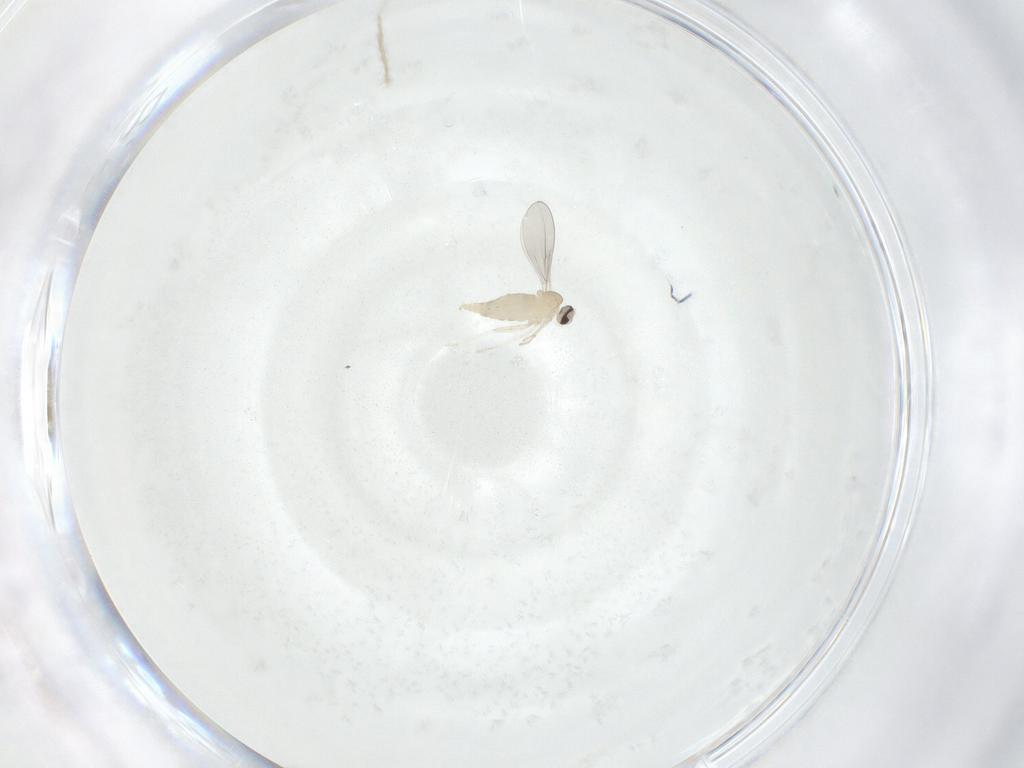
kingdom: Animalia
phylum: Arthropoda
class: Insecta
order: Diptera
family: Cecidomyiidae
